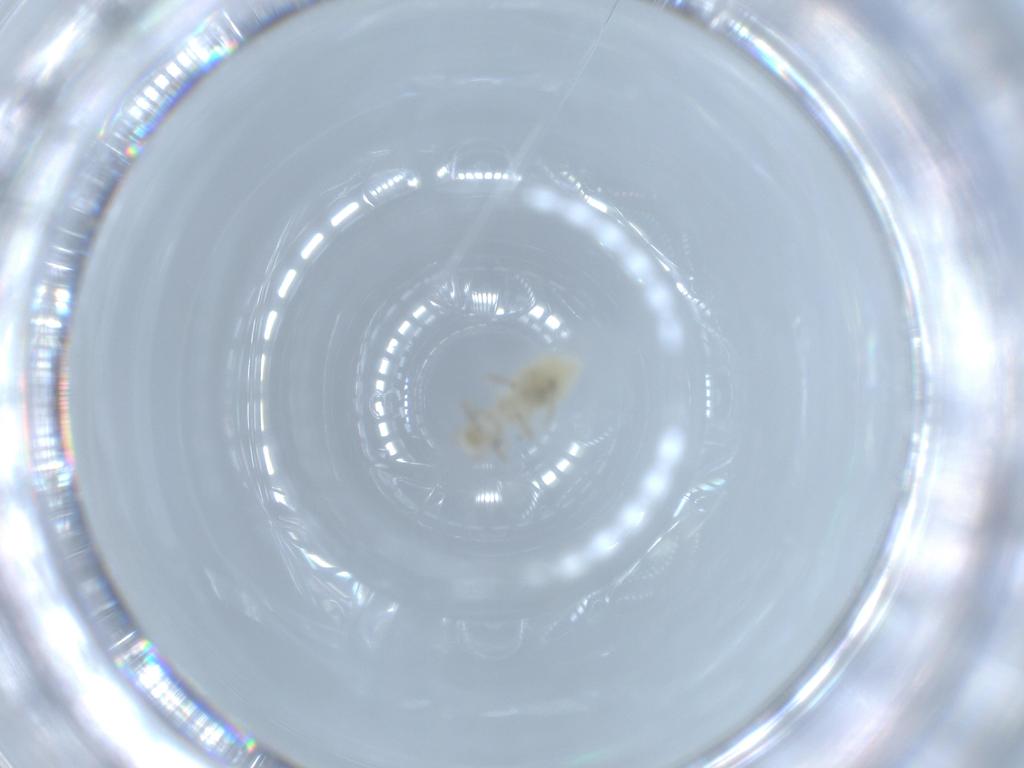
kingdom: Animalia
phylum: Arthropoda
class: Insecta
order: Psocodea
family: Caeciliusidae
